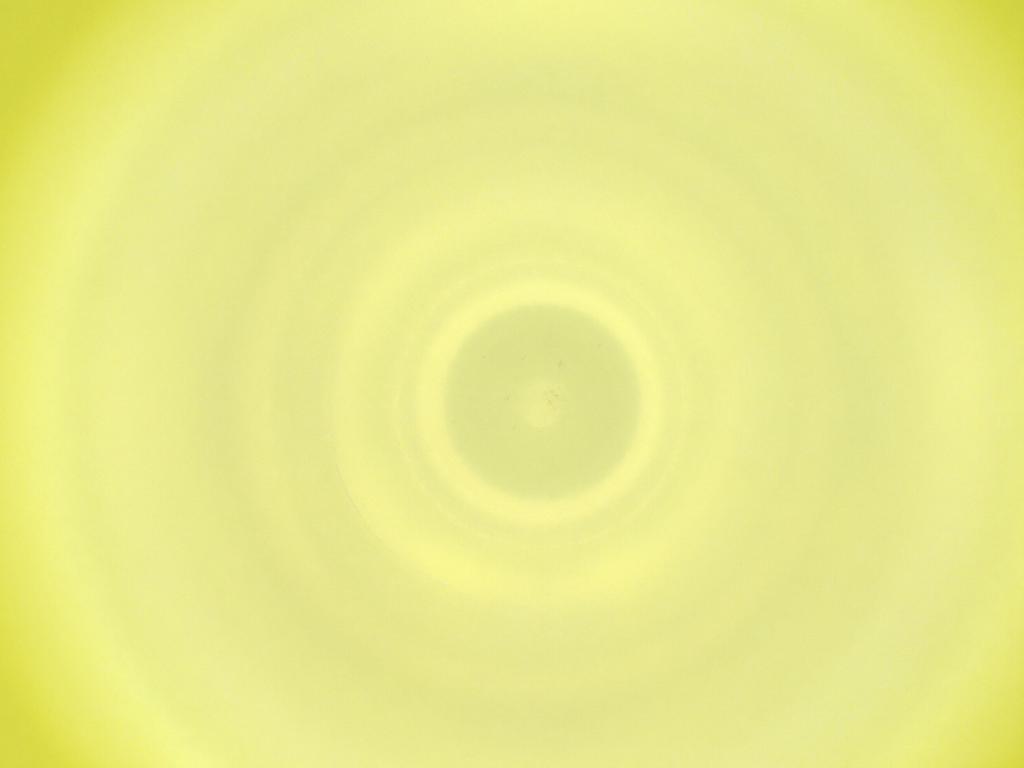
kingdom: Animalia
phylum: Arthropoda
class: Insecta
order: Diptera
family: Cecidomyiidae
